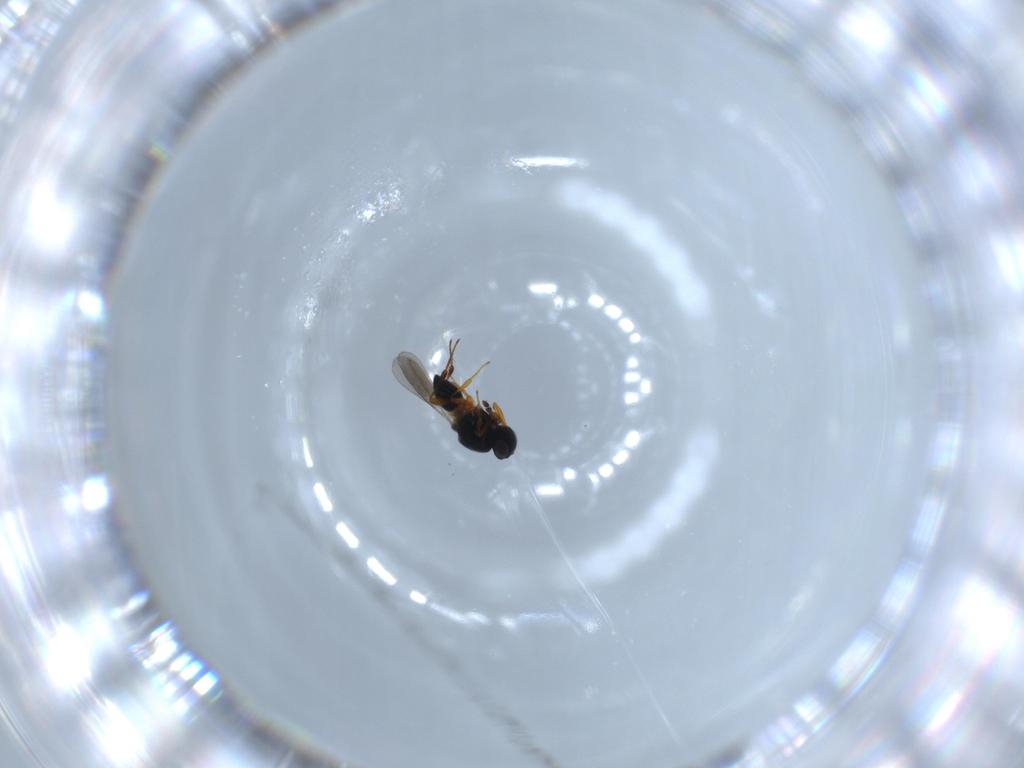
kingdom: Animalia
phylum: Arthropoda
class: Insecta
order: Hymenoptera
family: Platygastridae
